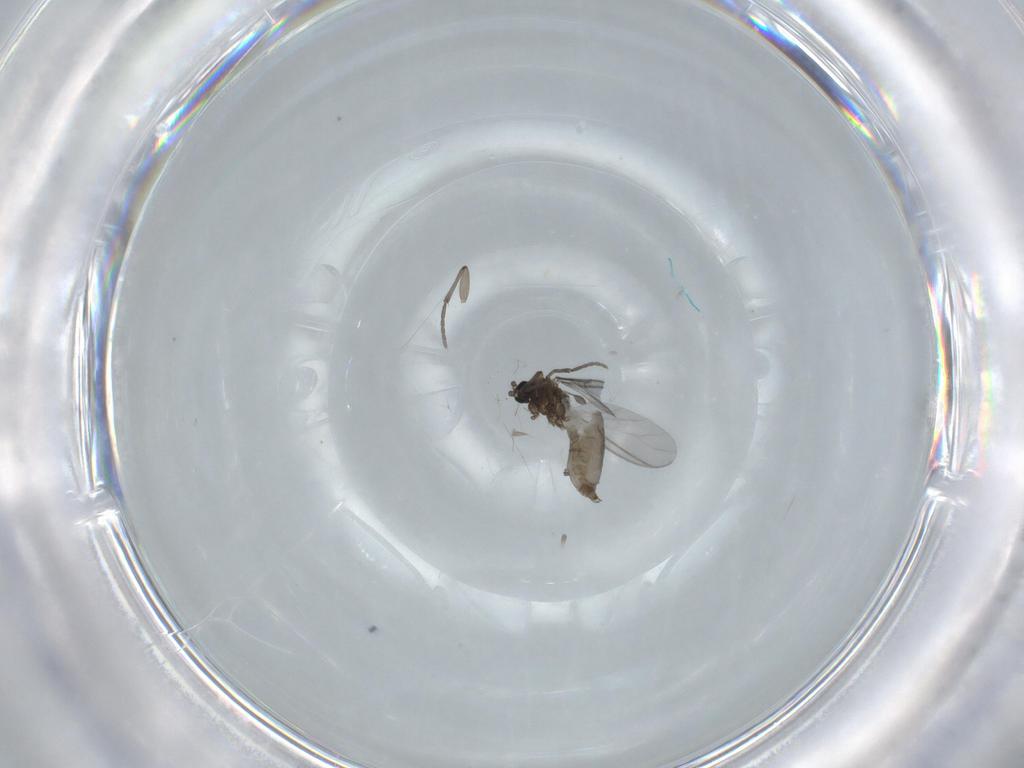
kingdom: Animalia
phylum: Arthropoda
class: Insecta
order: Diptera
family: Sciaridae
